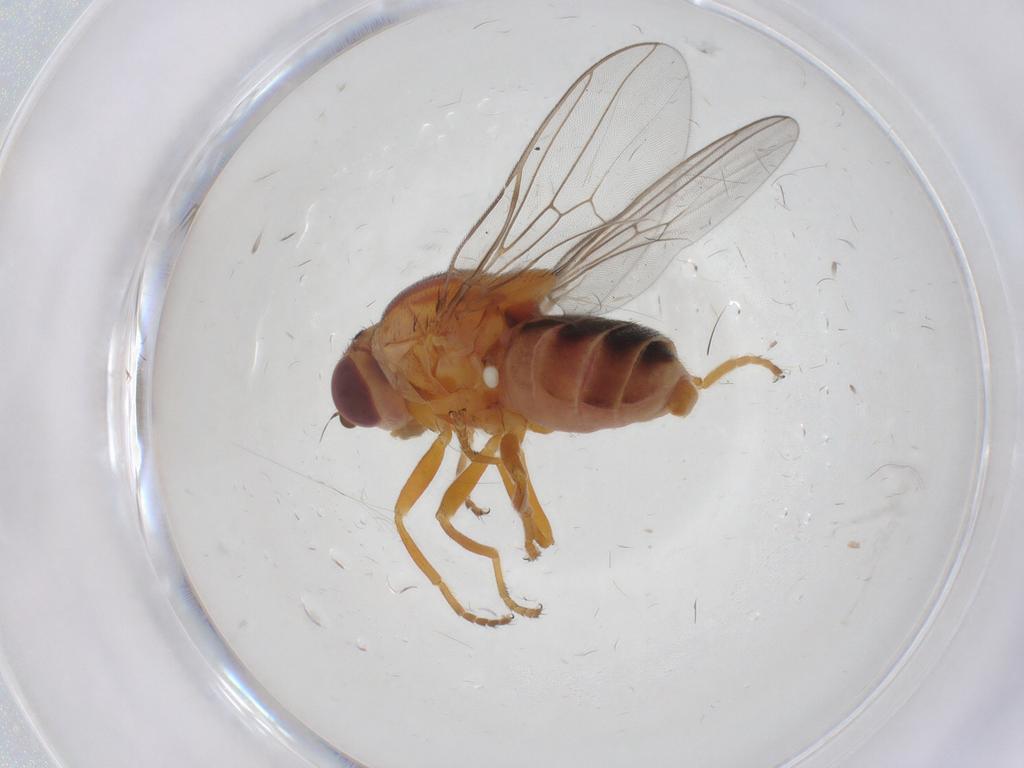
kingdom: Animalia
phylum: Arthropoda
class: Insecta
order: Diptera
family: Chloropidae
